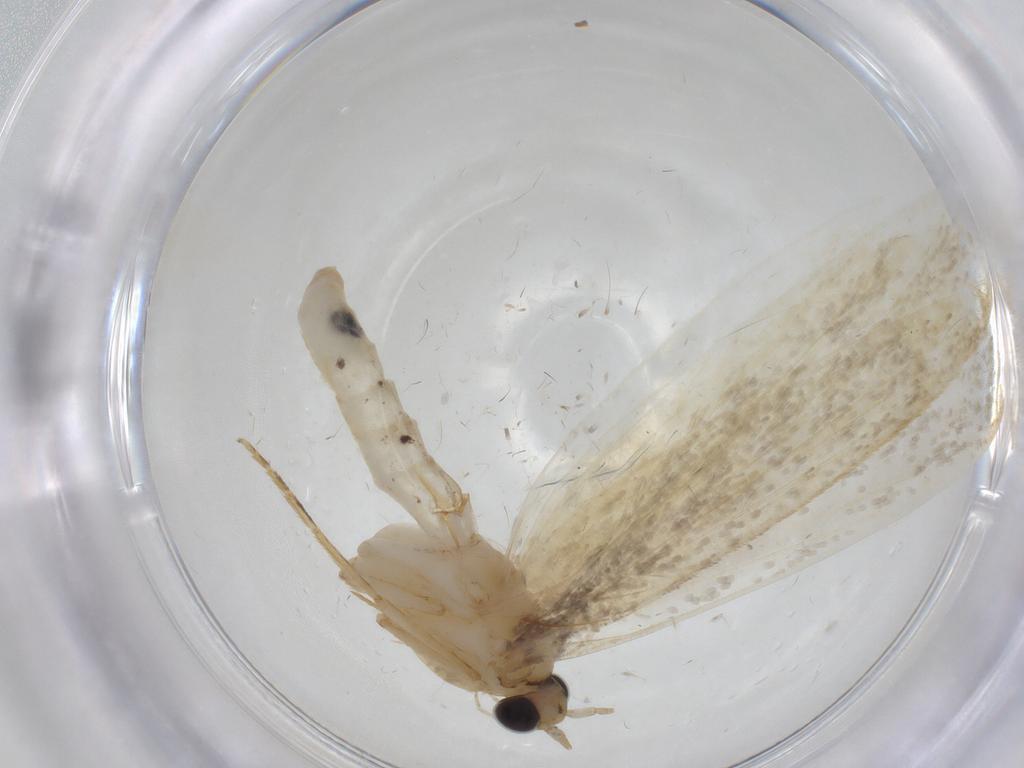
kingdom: Animalia
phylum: Arthropoda
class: Insecta
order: Lepidoptera
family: Tineidae
